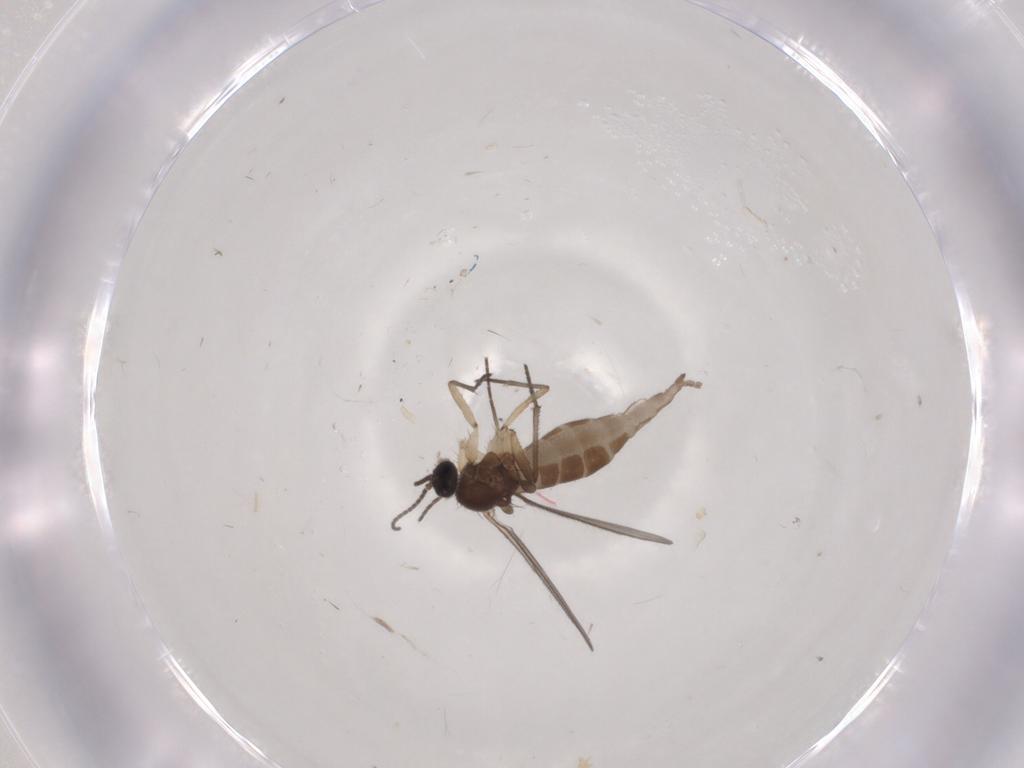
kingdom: Animalia
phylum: Arthropoda
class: Insecta
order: Diptera
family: Sciaridae
